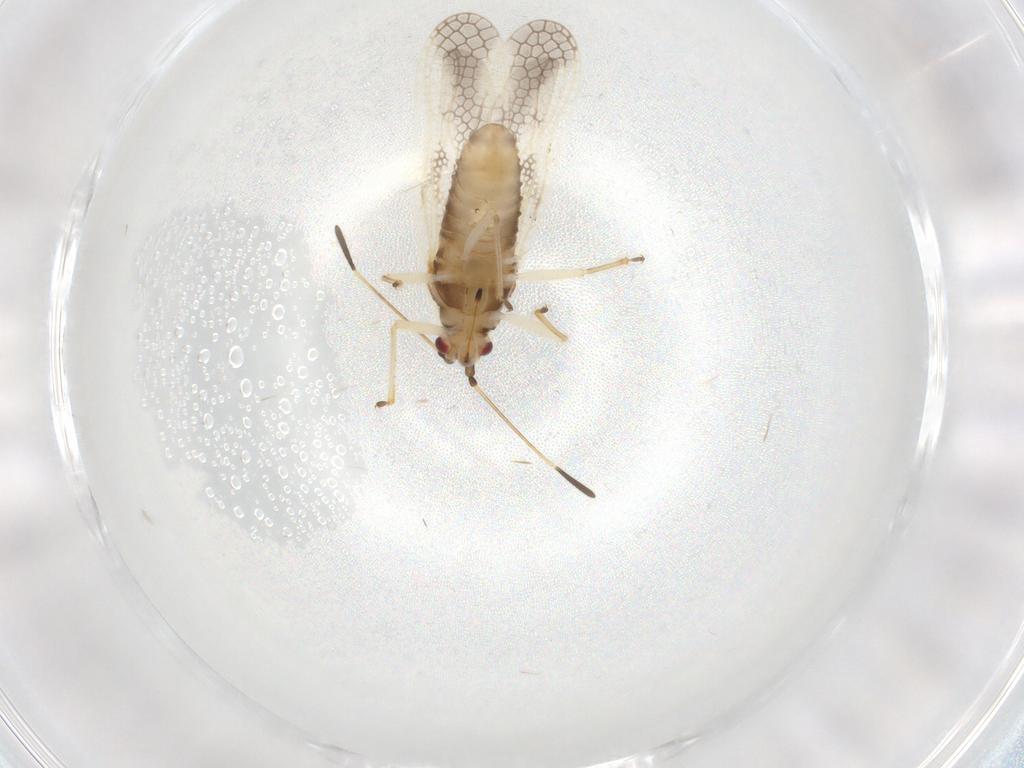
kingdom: Animalia
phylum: Arthropoda
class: Insecta
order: Hemiptera
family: Tingidae
